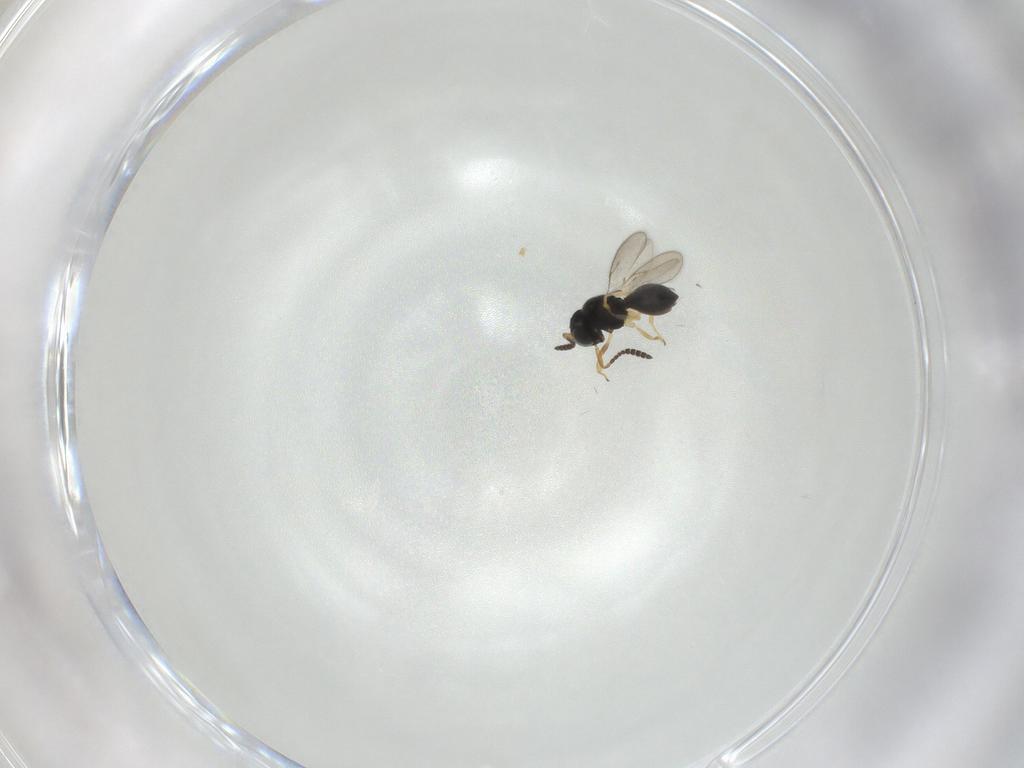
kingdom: Animalia
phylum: Arthropoda
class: Insecta
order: Hymenoptera
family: Scelionidae
